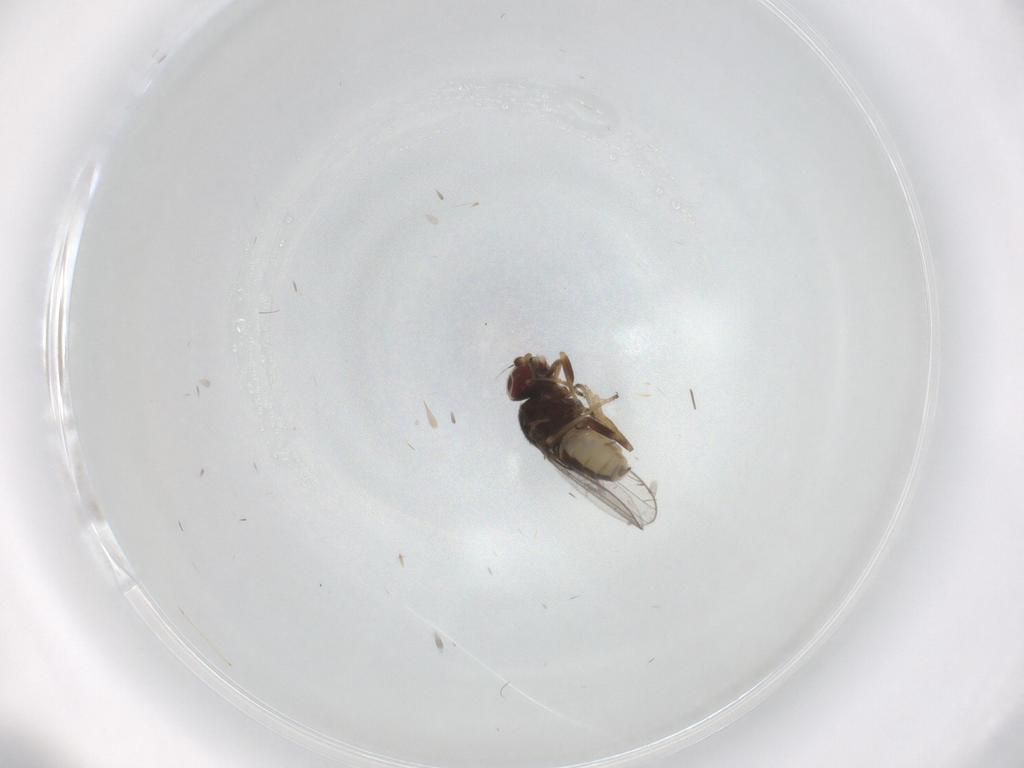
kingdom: Animalia
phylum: Arthropoda
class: Insecta
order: Diptera
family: Chloropidae
